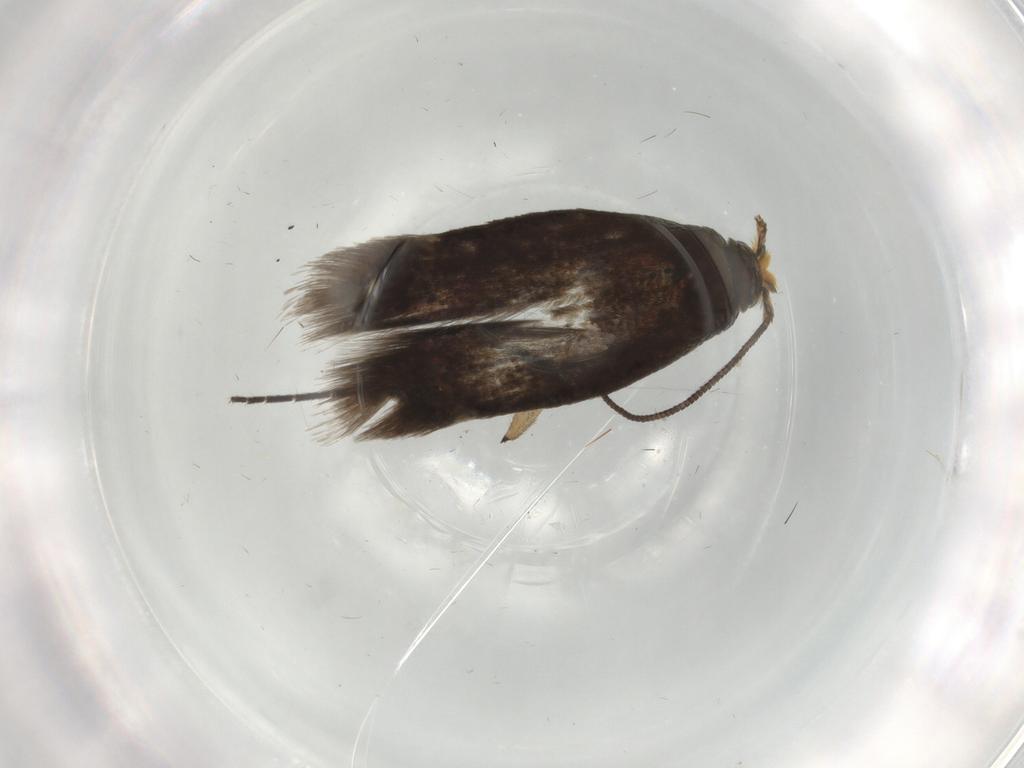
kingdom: Animalia
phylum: Arthropoda
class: Insecta
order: Lepidoptera
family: Nepticulidae
